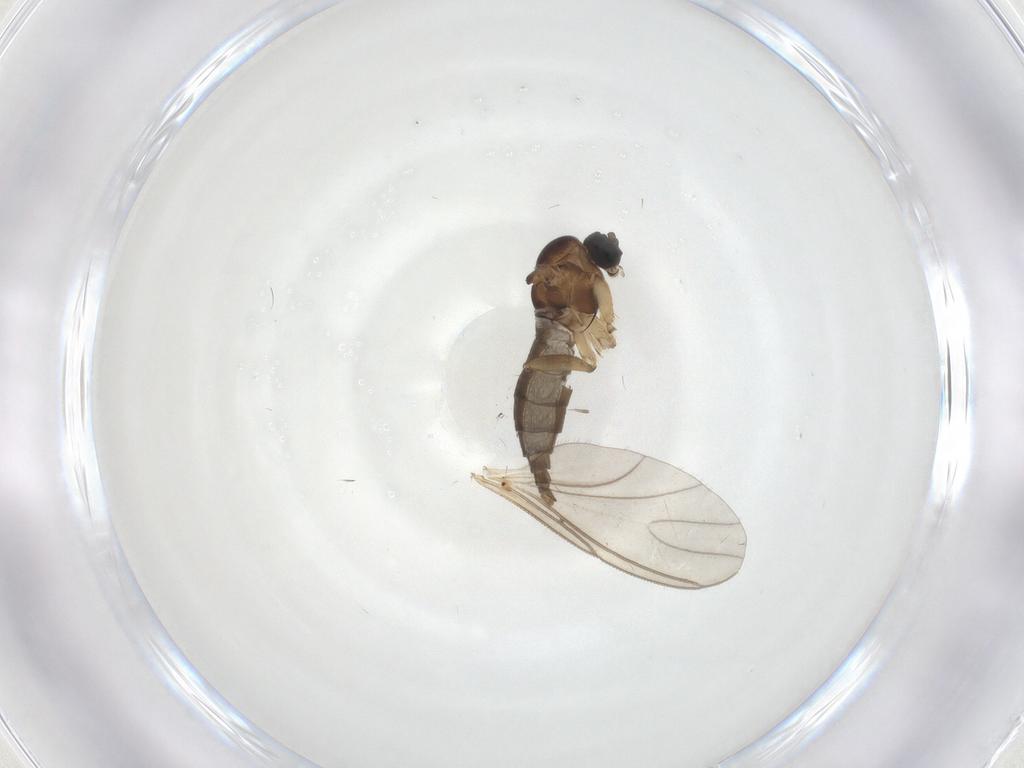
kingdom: Animalia
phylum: Arthropoda
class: Insecta
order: Diptera
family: Sciaridae
